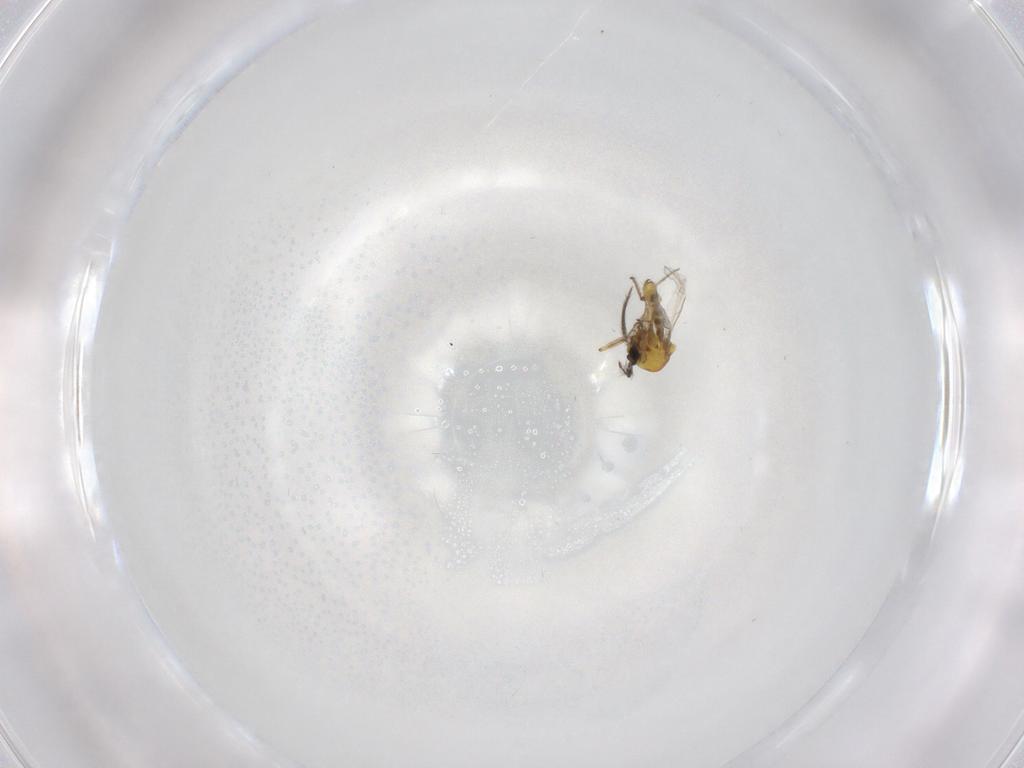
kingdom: Animalia
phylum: Arthropoda
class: Insecta
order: Diptera
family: Ceratopogonidae
